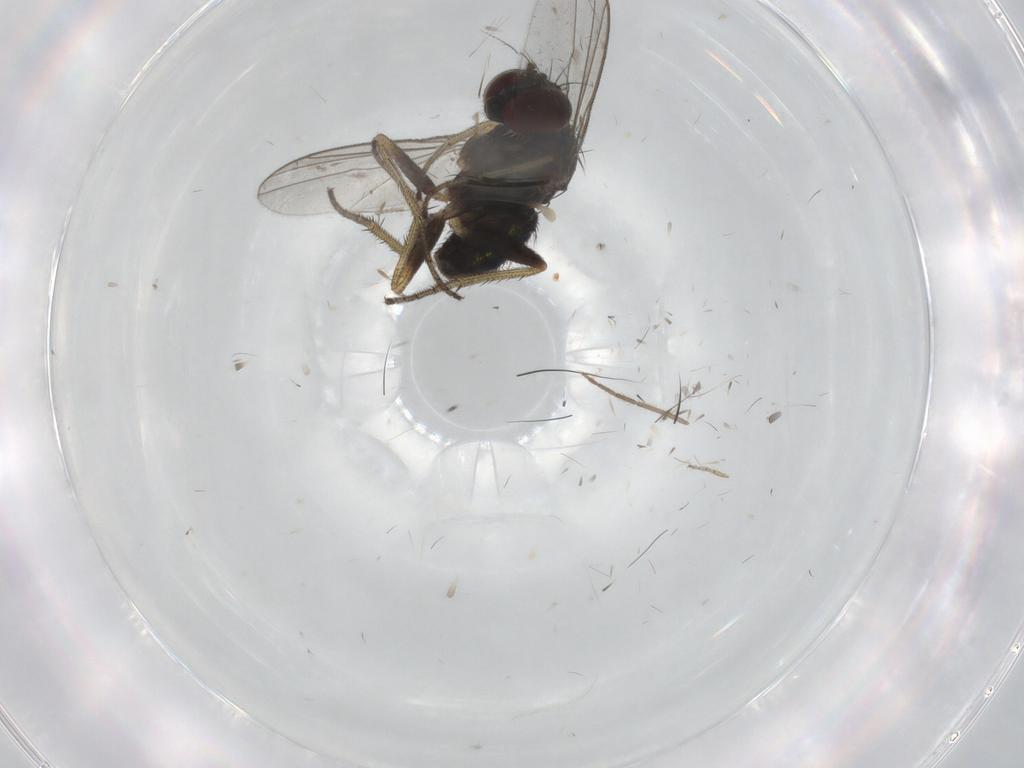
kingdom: Animalia
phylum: Arthropoda
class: Insecta
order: Diptera
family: Dolichopodidae
